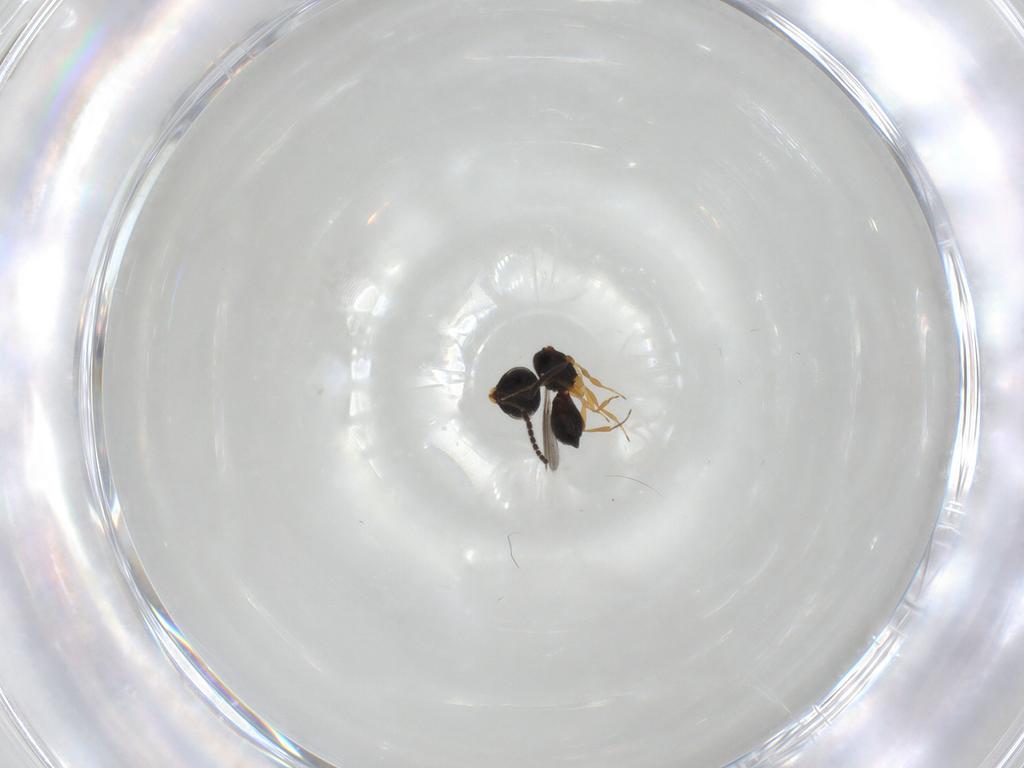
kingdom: Animalia
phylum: Arthropoda
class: Insecta
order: Hymenoptera
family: Scelionidae
